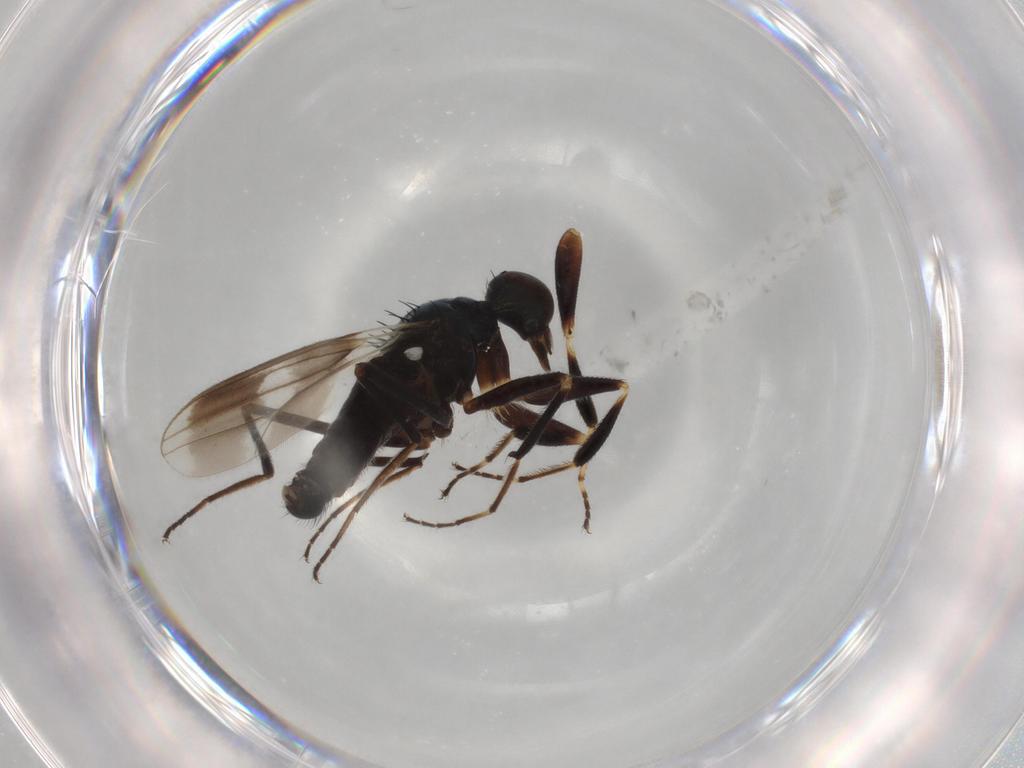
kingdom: Animalia
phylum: Arthropoda
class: Insecta
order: Diptera
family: Sphaeroceridae
